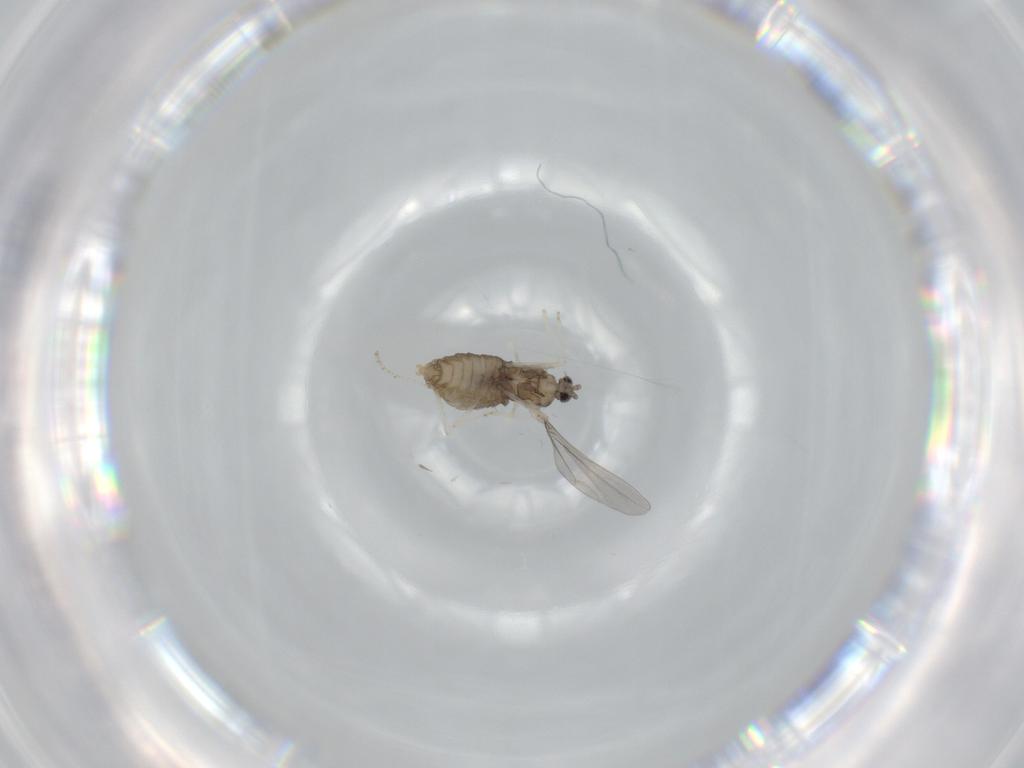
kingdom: Animalia
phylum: Arthropoda
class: Insecta
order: Diptera
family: Cecidomyiidae
